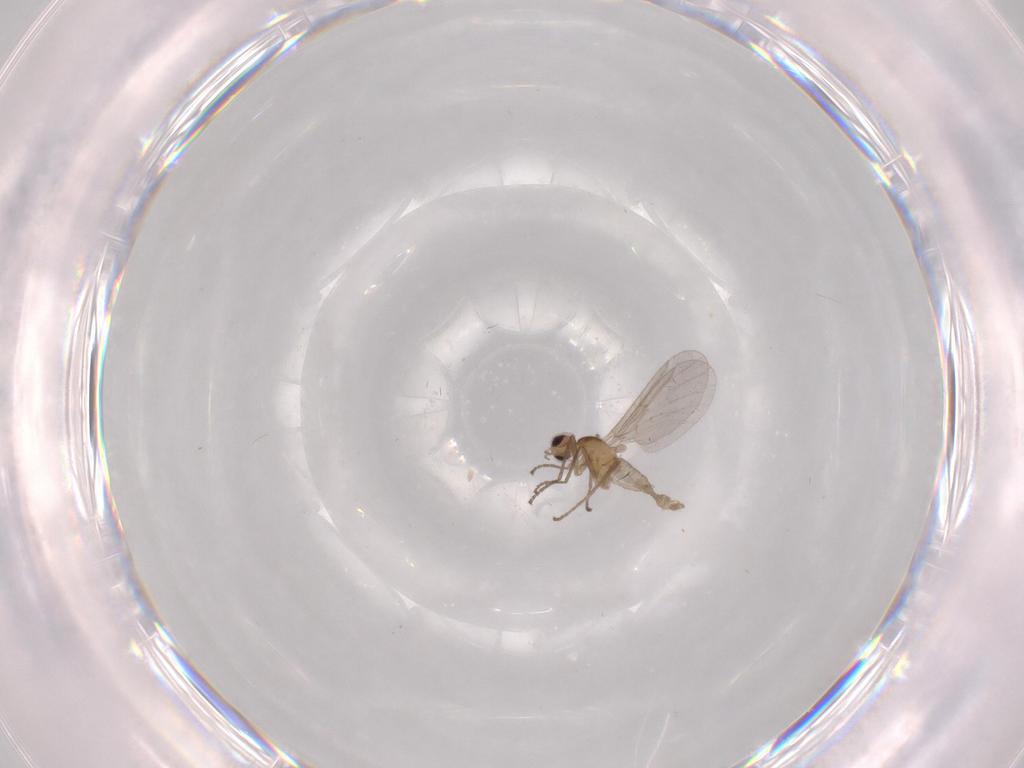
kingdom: Animalia
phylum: Arthropoda
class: Insecta
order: Diptera
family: Cecidomyiidae
